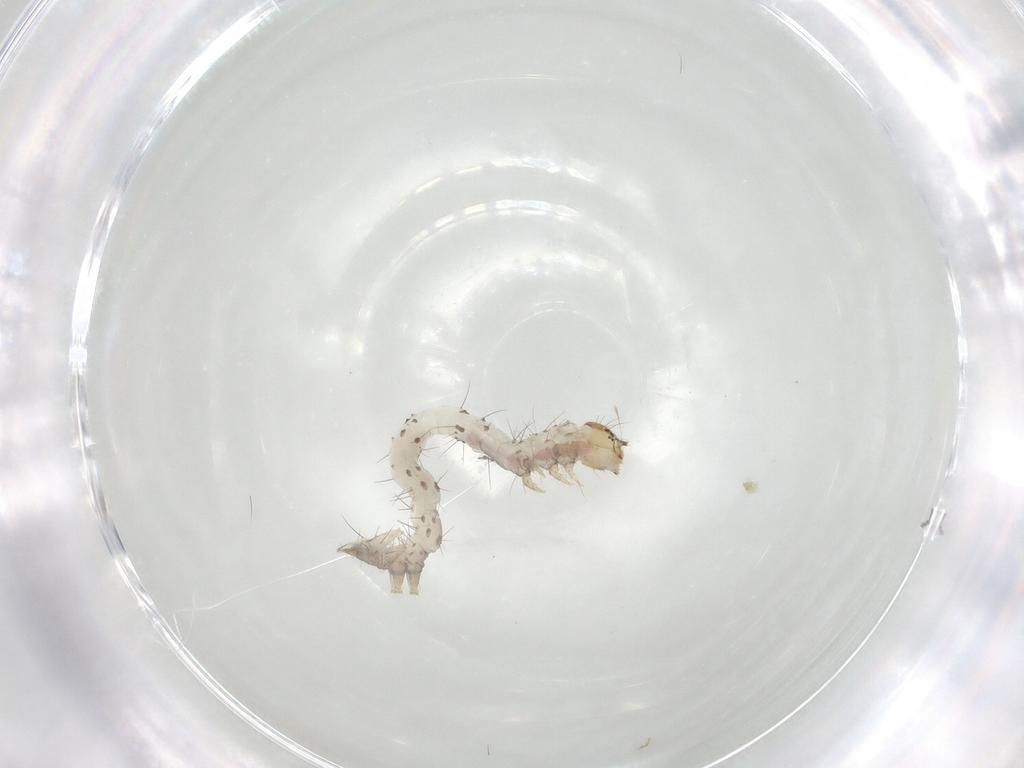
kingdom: Animalia
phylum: Arthropoda
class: Insecta
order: Lepidoptera
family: Erebidae
